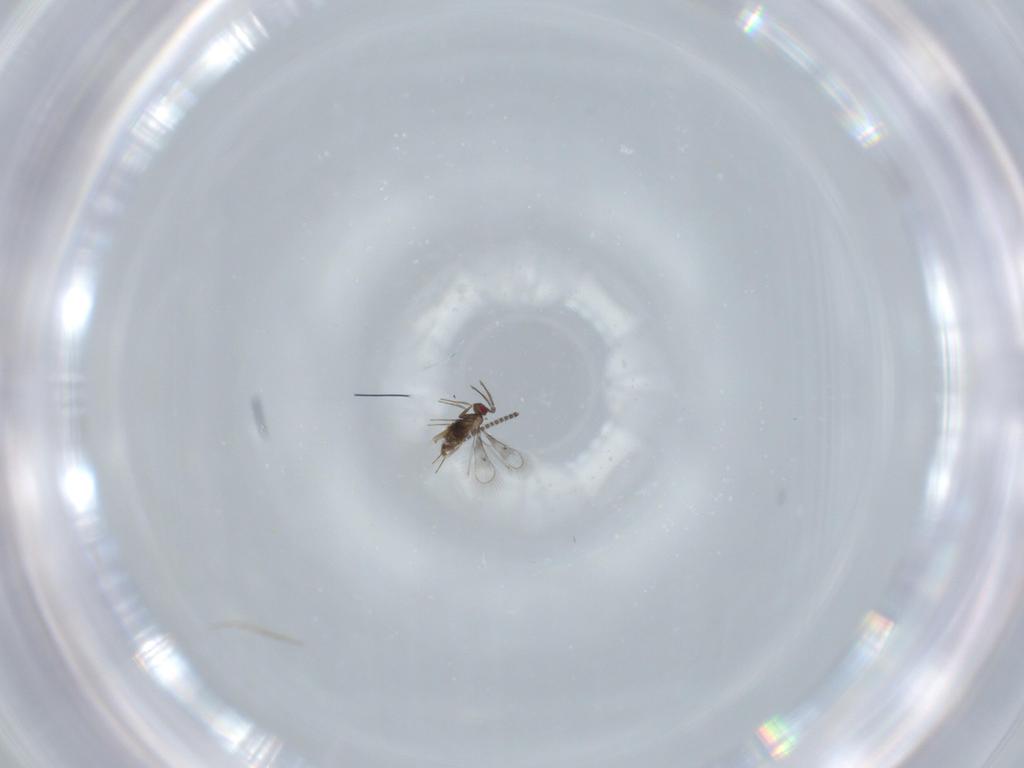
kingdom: Animalia
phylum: Arthropoda
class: Insecta
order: Hymenoptera
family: Trichogrammatidae
